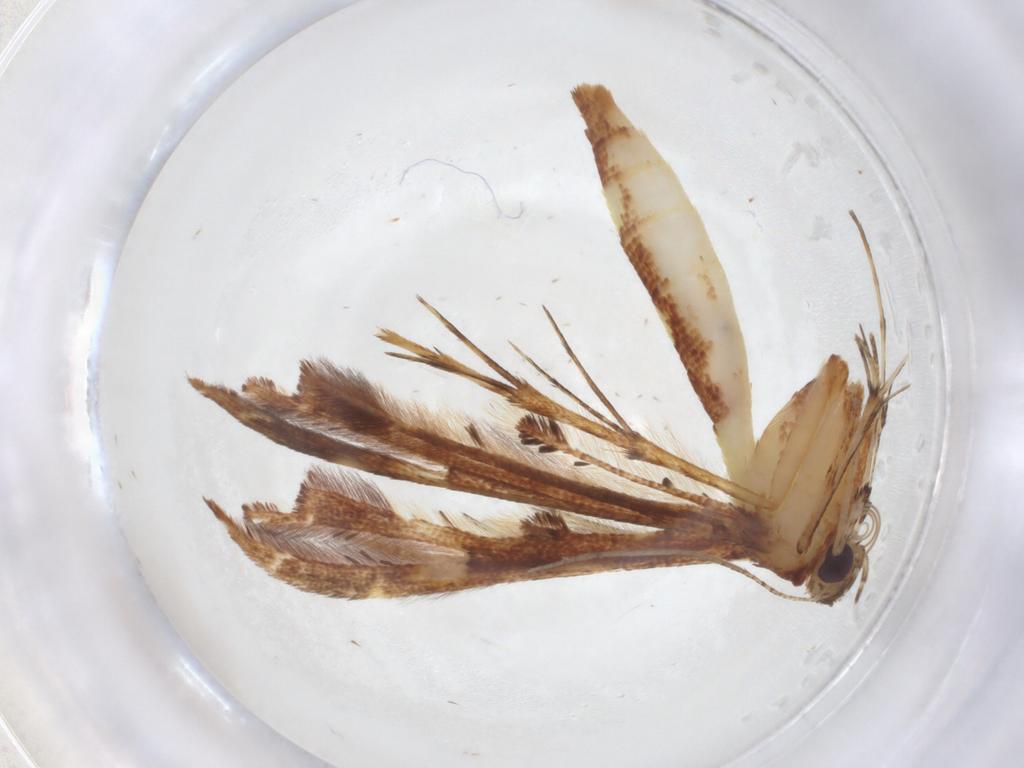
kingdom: Animalia
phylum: Arthropoda
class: Insecta
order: Lepidoptera
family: Pterophoridae
